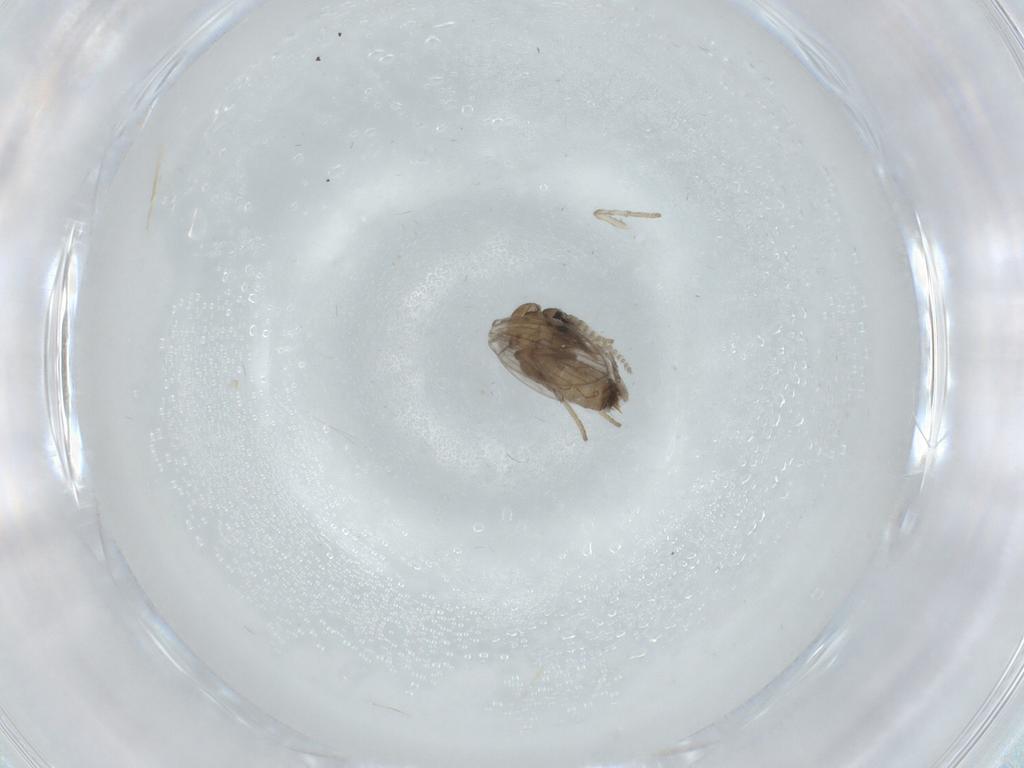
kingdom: Animalia
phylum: Arthropoda
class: Insecta
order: Diptera
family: Psychodidae
